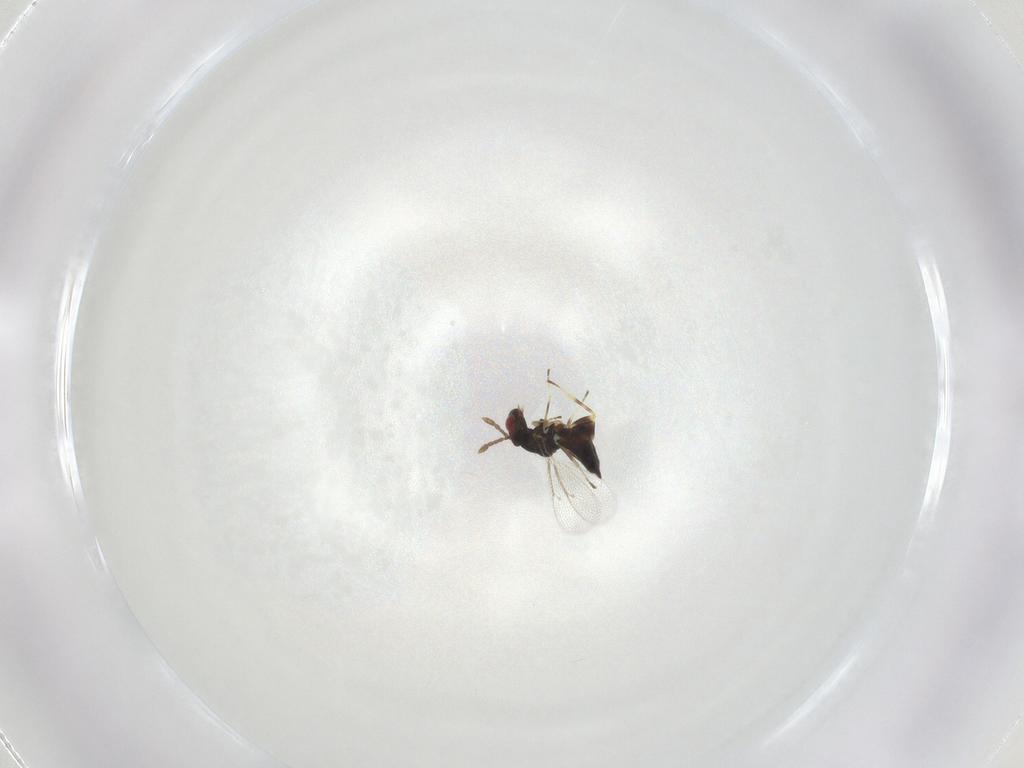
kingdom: Animalia
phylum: Arthropoda
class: Insecta
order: Hymenoptera
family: Eulophidae
